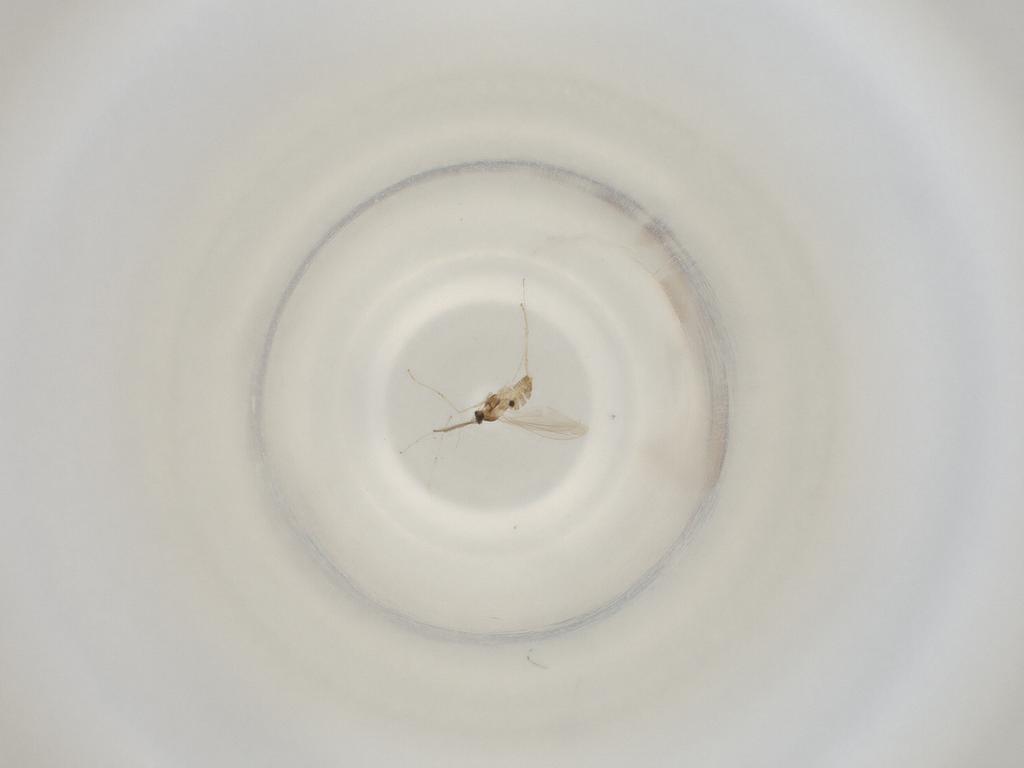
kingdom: Animalia
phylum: Arthropoda
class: Insecta
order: Diptera
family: Cecidomyiidae
